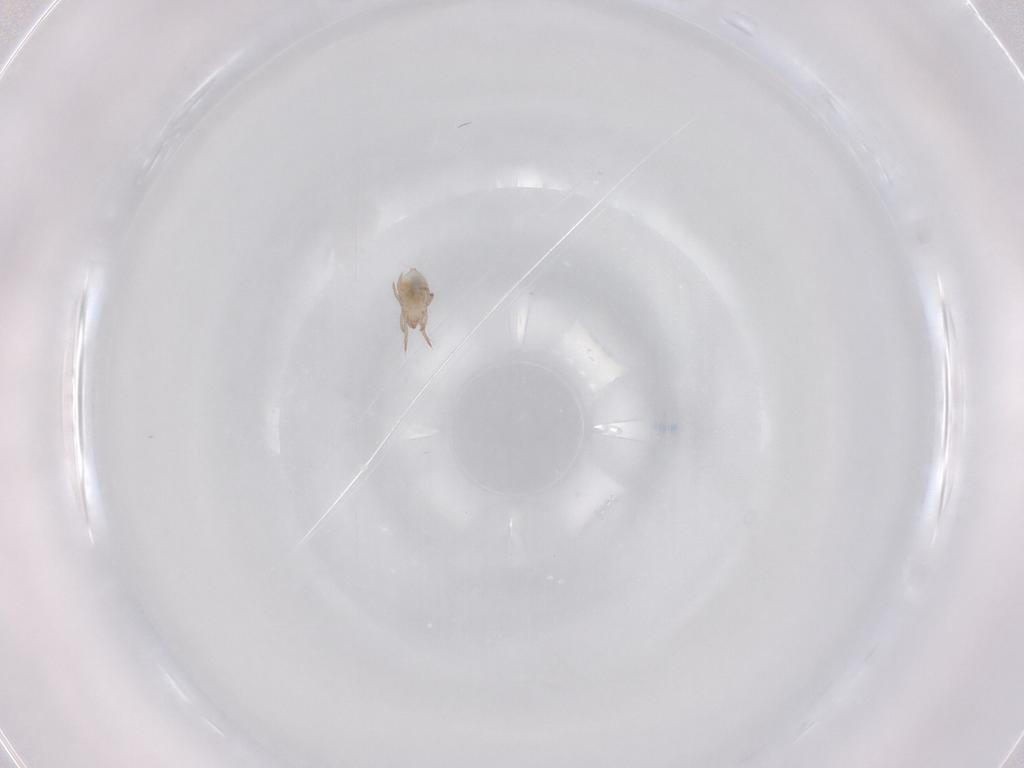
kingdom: Animalia
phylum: Arthropoda
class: Arachnida
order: Sarcoptiformes
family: Ceratoppiidae
